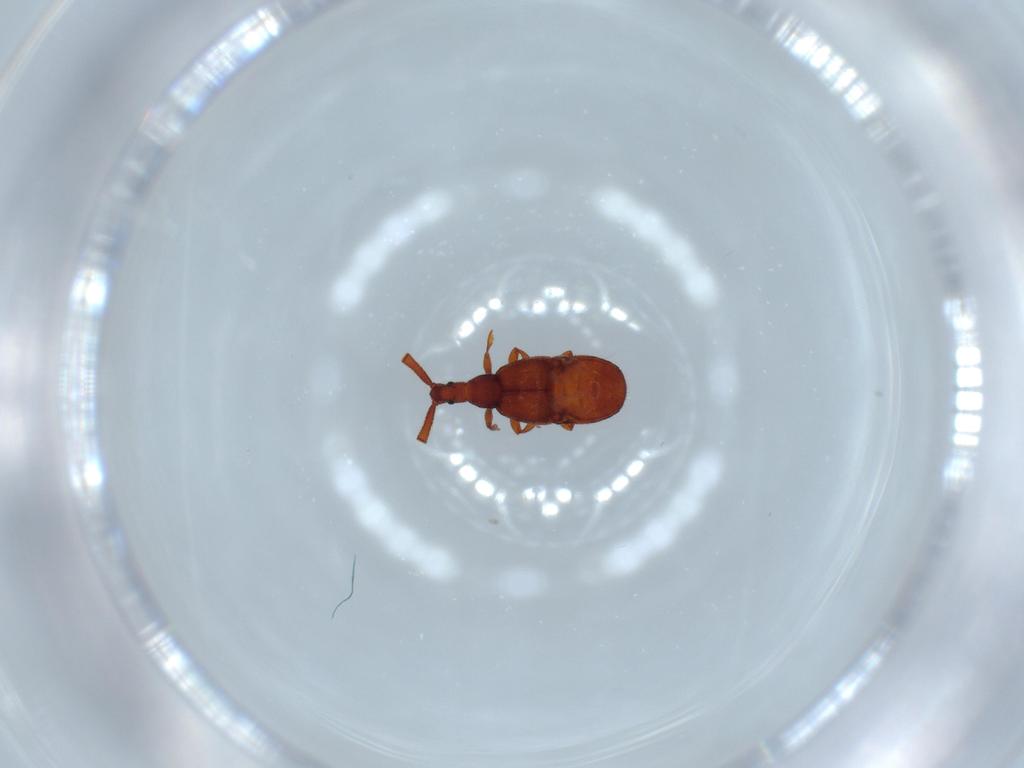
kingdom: Animalia
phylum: Arthropoda
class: Insecta
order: Coleoptera
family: Staphylinidae
